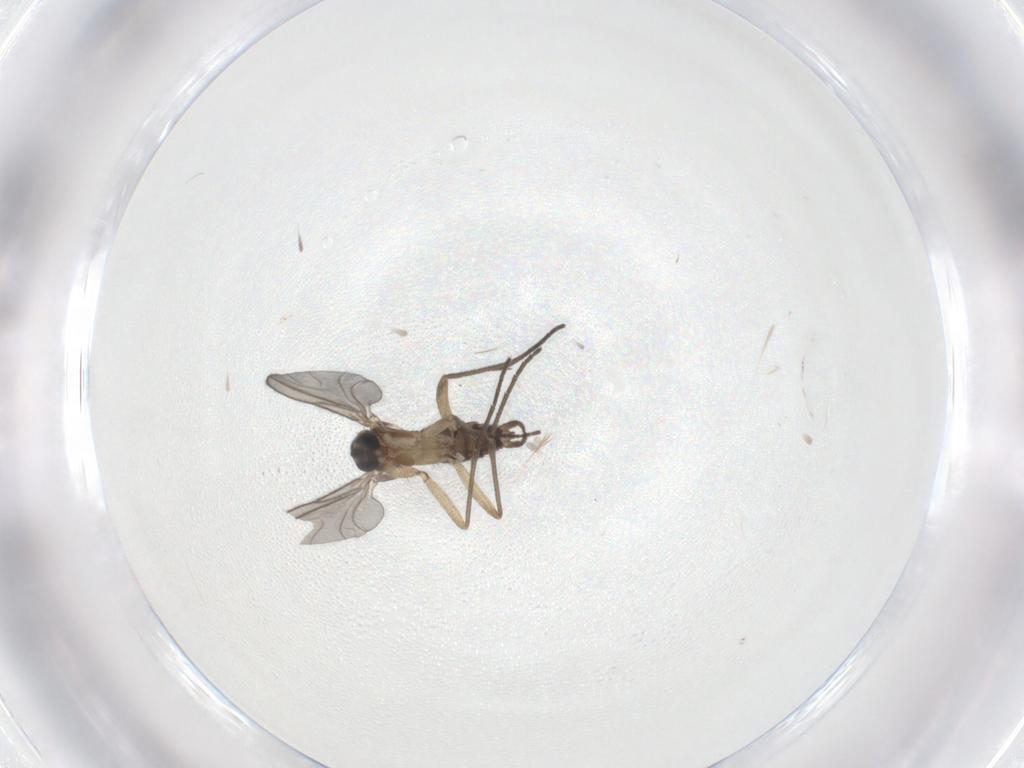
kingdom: Animalia
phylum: Arthropoda
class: Insecta
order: Diptera
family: Sciaridae
